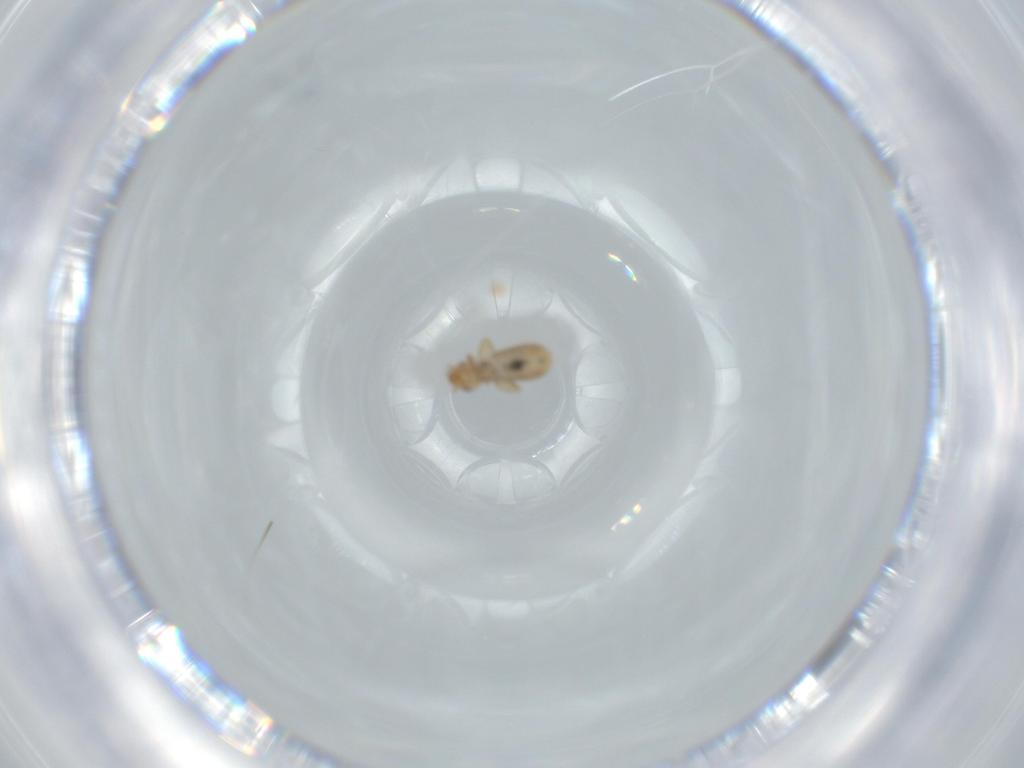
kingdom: Animalia
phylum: Arthropoda
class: Insecta
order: Psocodea
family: Liposcelididae
